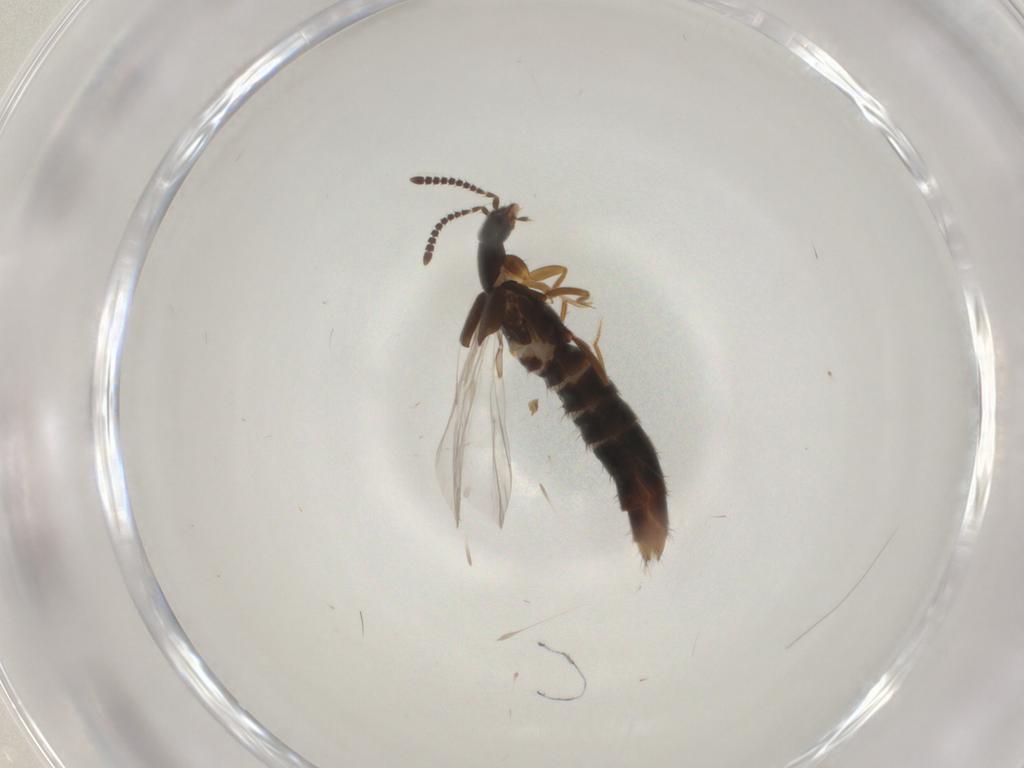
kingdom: Animalia
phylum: Arthropoda
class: Insecta
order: Coleoptera
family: Staphylinidae
